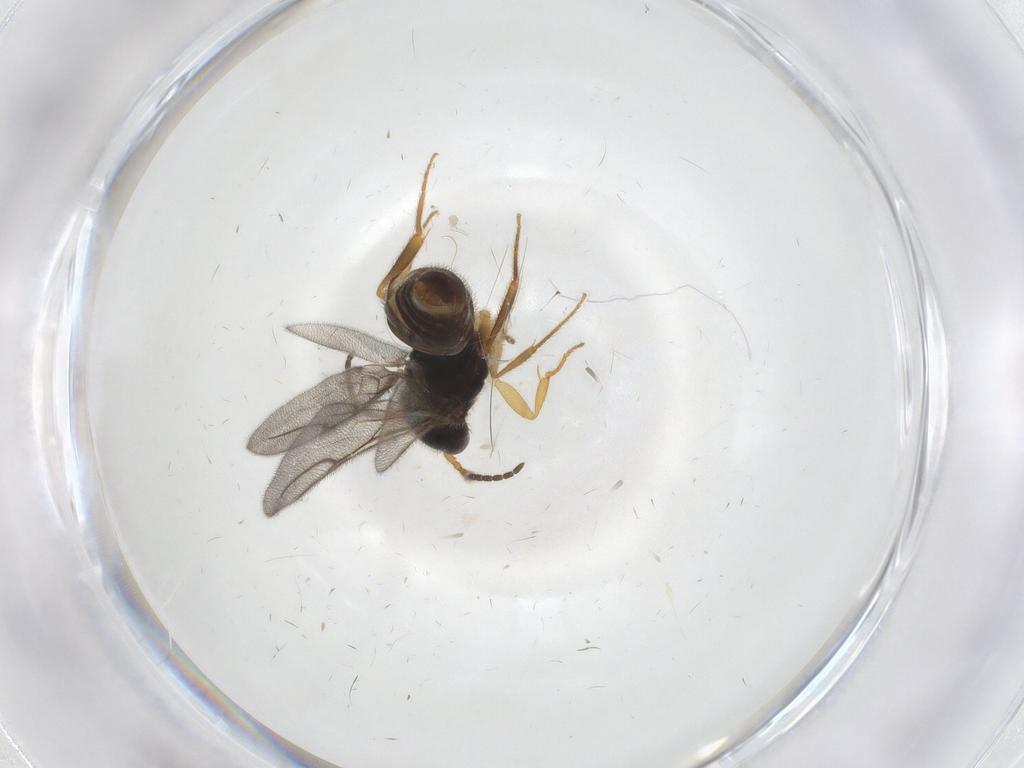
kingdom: Animalia
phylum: Arthropoda
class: Insecta
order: Hymenoptera
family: Bethylidae
